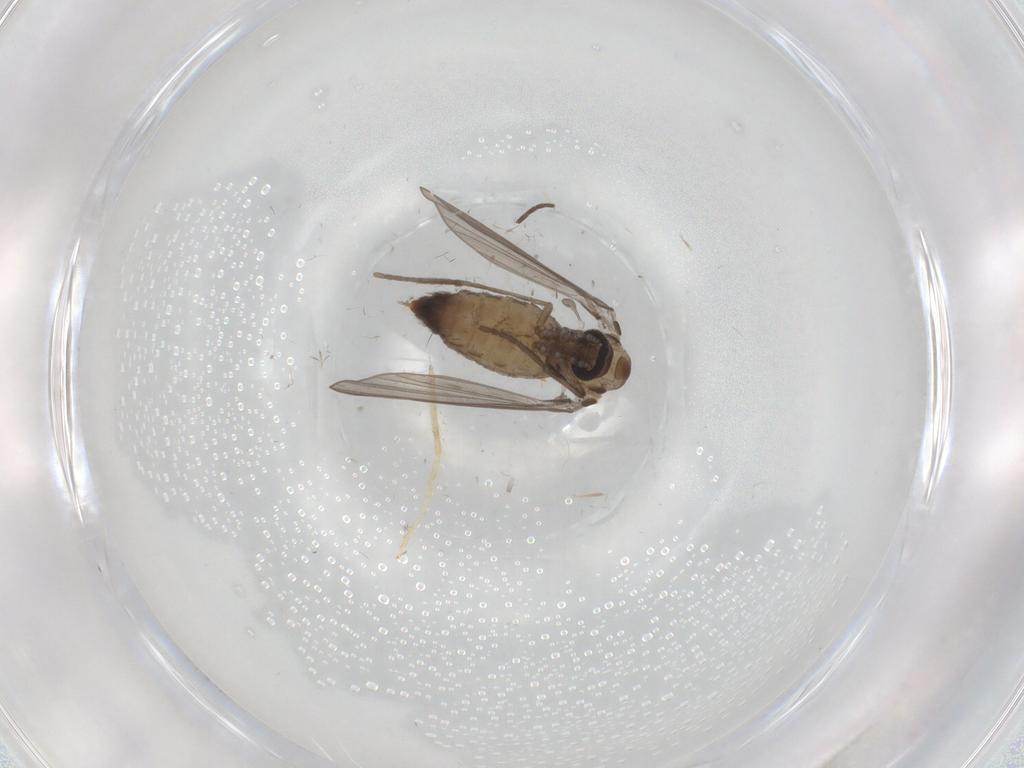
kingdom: Animalia
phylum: Arthropoda
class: Insecta
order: Diptera
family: Psychodidae
